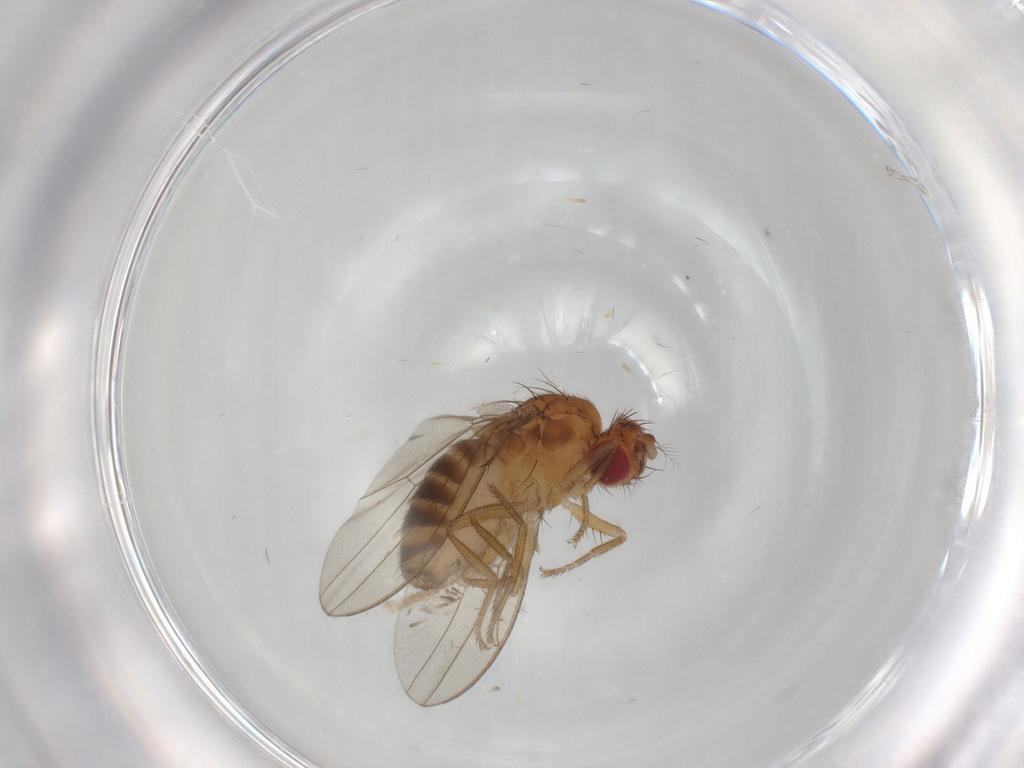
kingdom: Animalia
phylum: Arthropoda
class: Insecta
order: Diptera
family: Drosophilidae
